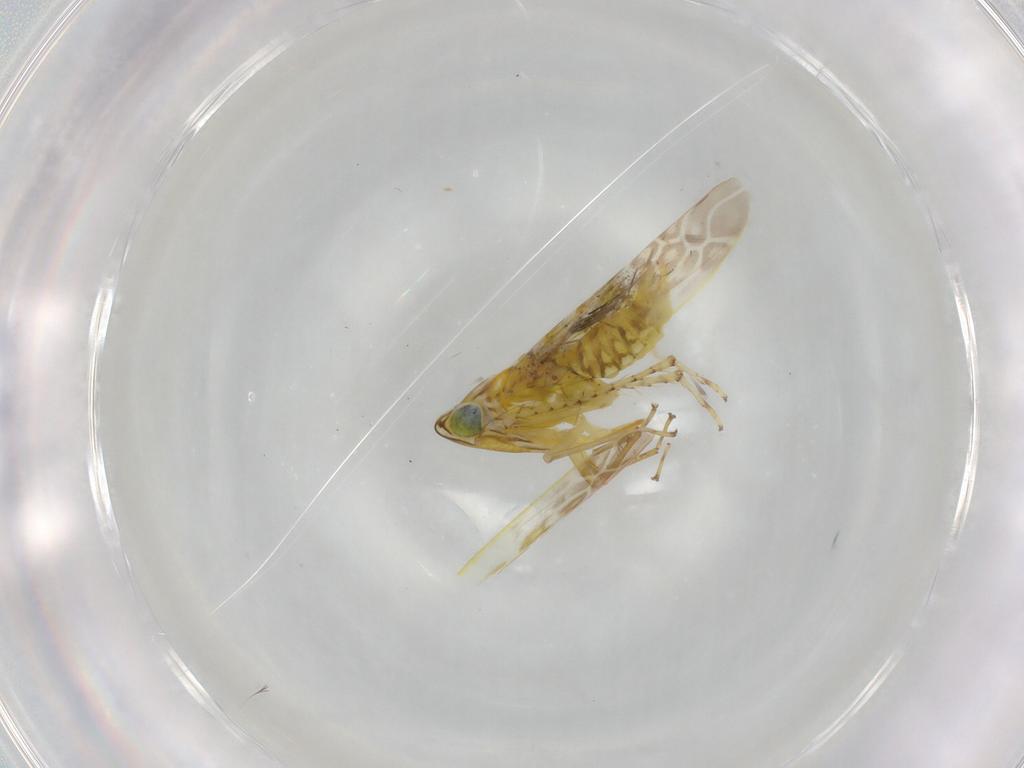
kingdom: Animalia
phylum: Arthropoda
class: Insecta
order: Hemiptera
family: Cicadellidae
